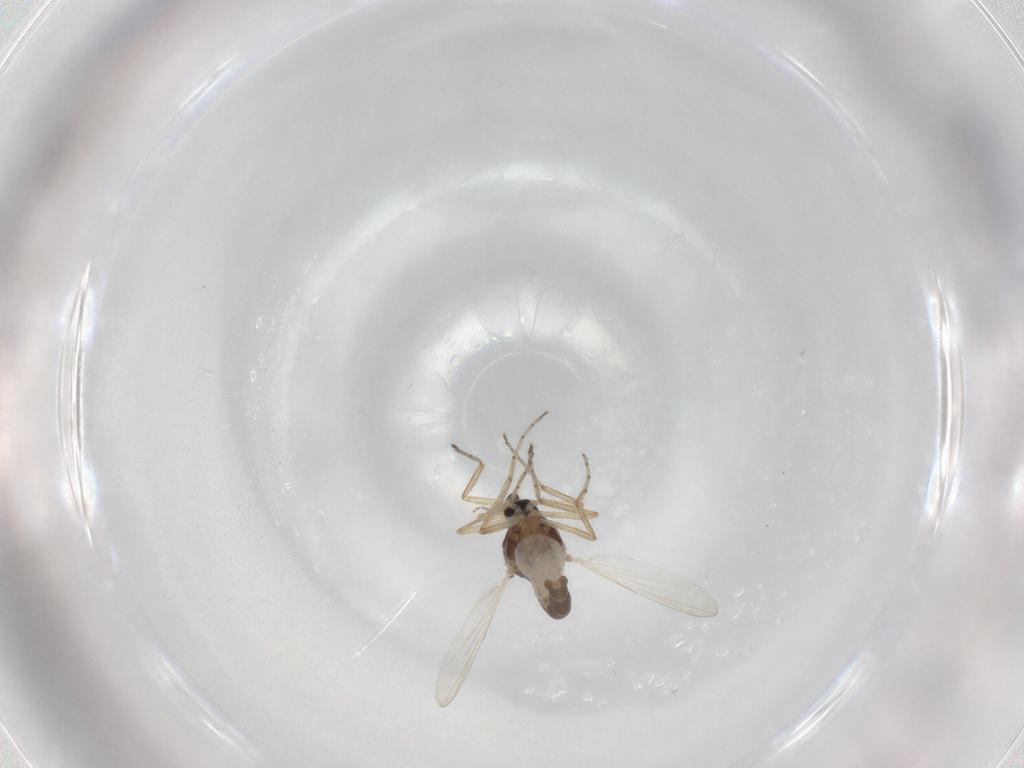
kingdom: Animalia
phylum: Arthropoda
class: Insecta
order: Diptera
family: Ceratopogonidae
